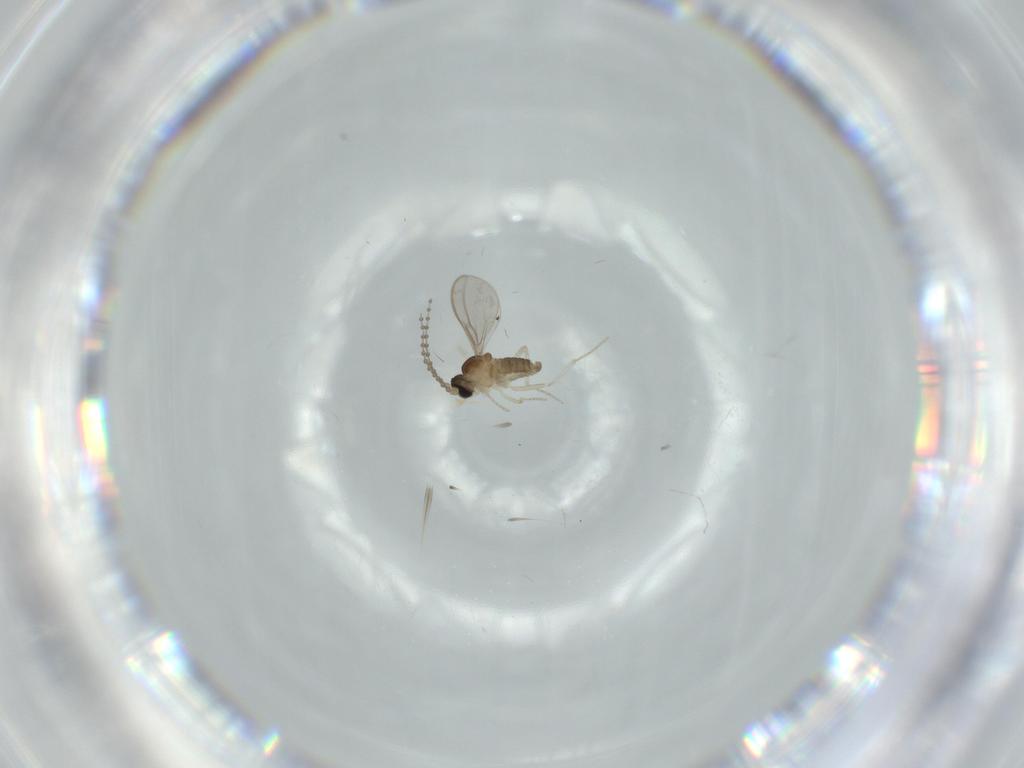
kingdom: Animalia
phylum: Arthropoda
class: Insecta
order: Diptera
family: Cecidomyiidae
